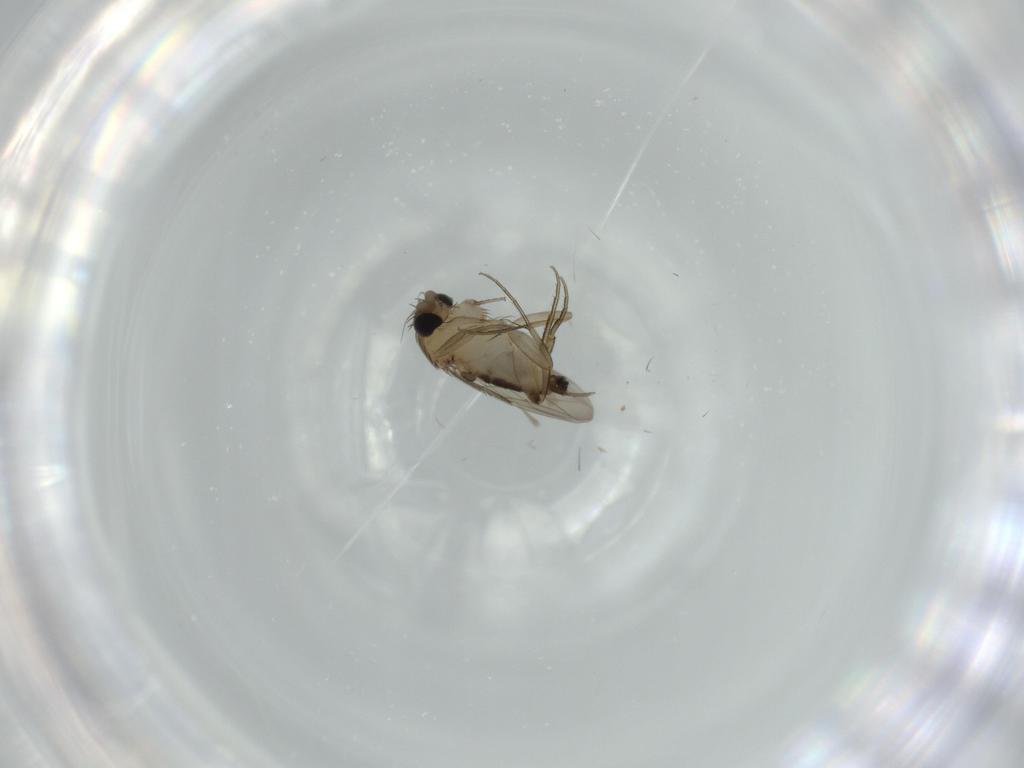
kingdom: Animalia
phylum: Arthropoda
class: Insecta
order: Diptera
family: Phoridae
